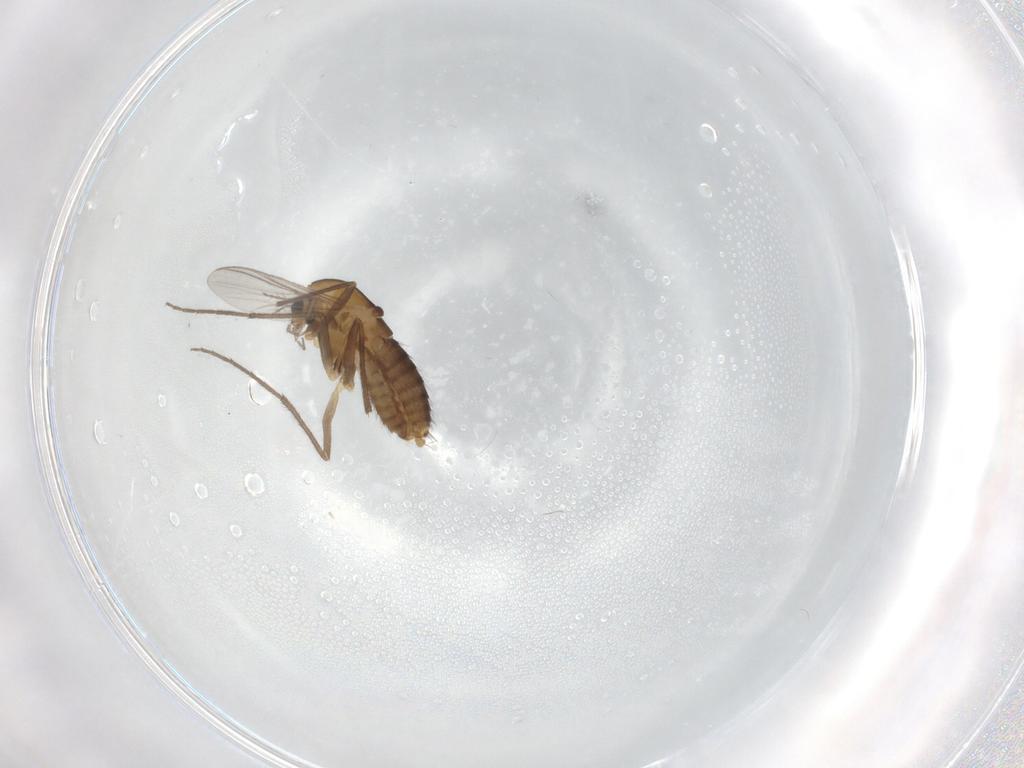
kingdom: Animalia
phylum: Arthropoda
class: Insecta
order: Diptera
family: Chironomidae
